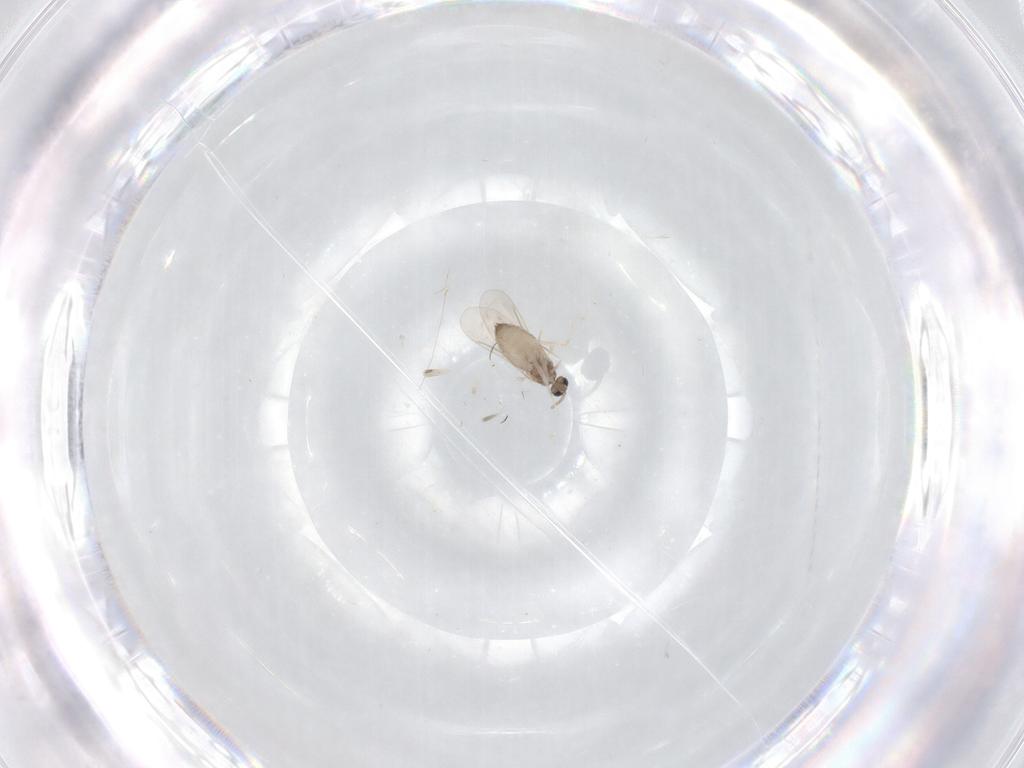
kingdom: Animalia
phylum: Arthropoda
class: Insecta
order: Diptera
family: Cecidomyiidae
